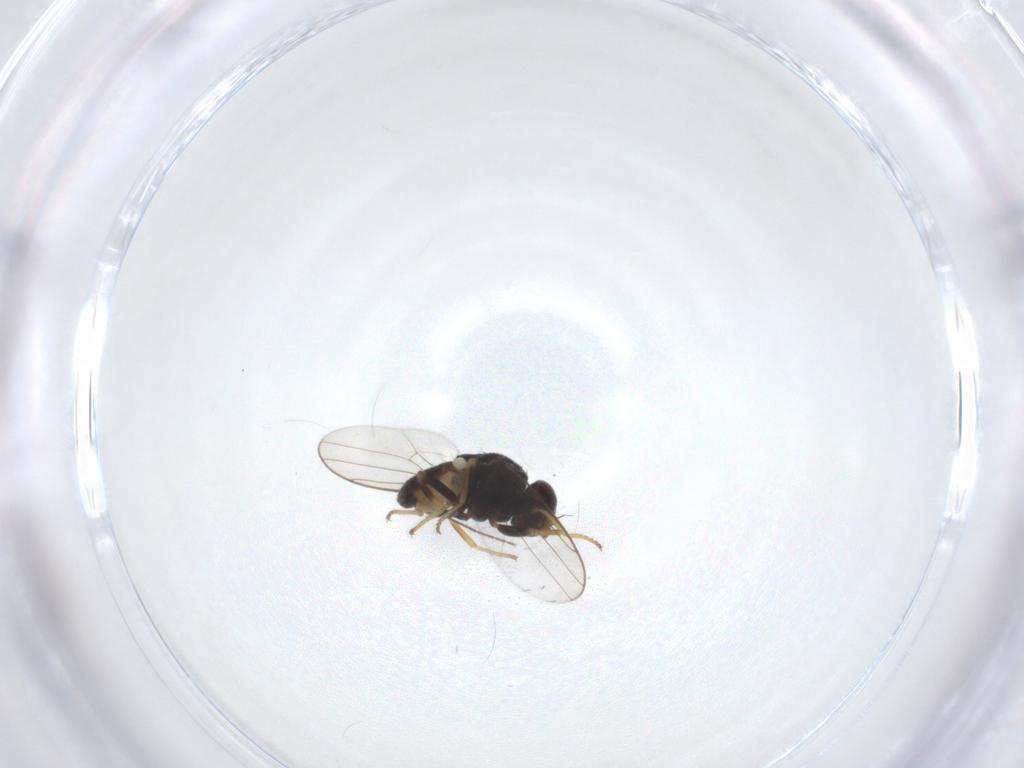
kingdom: Animalia
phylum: Arthropoda
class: Insecta
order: Diptera
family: Chloropidae
